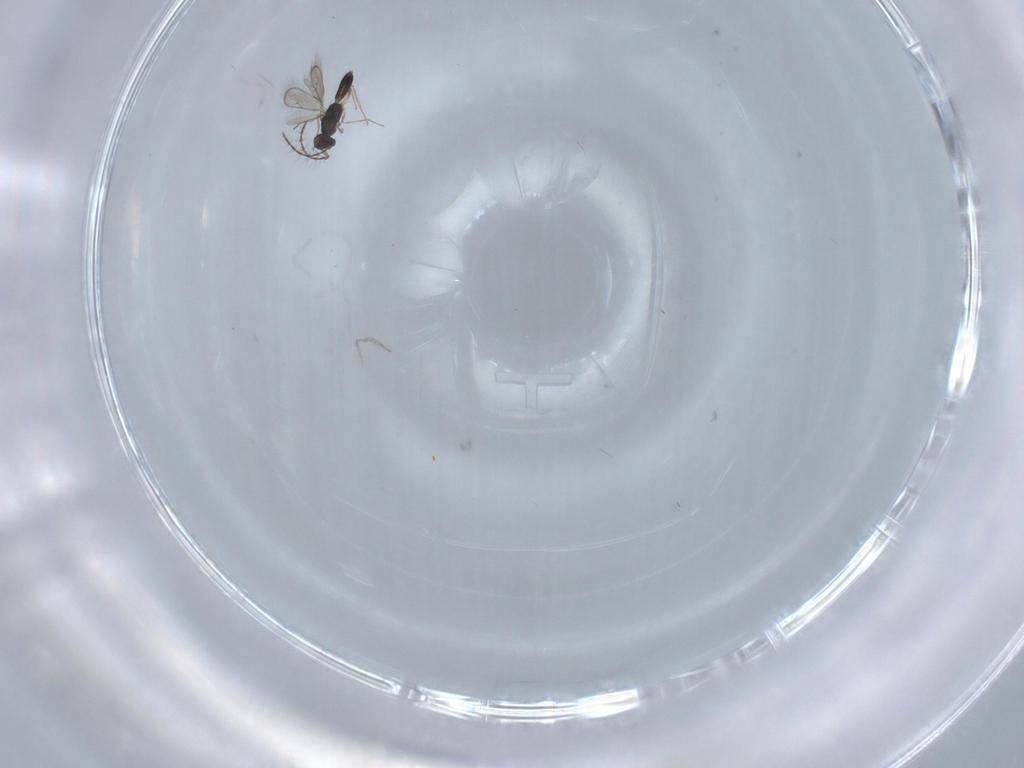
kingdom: Animalia
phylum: Arthropoda
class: Insecta
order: Hymenoptera
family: Pteromalidae
